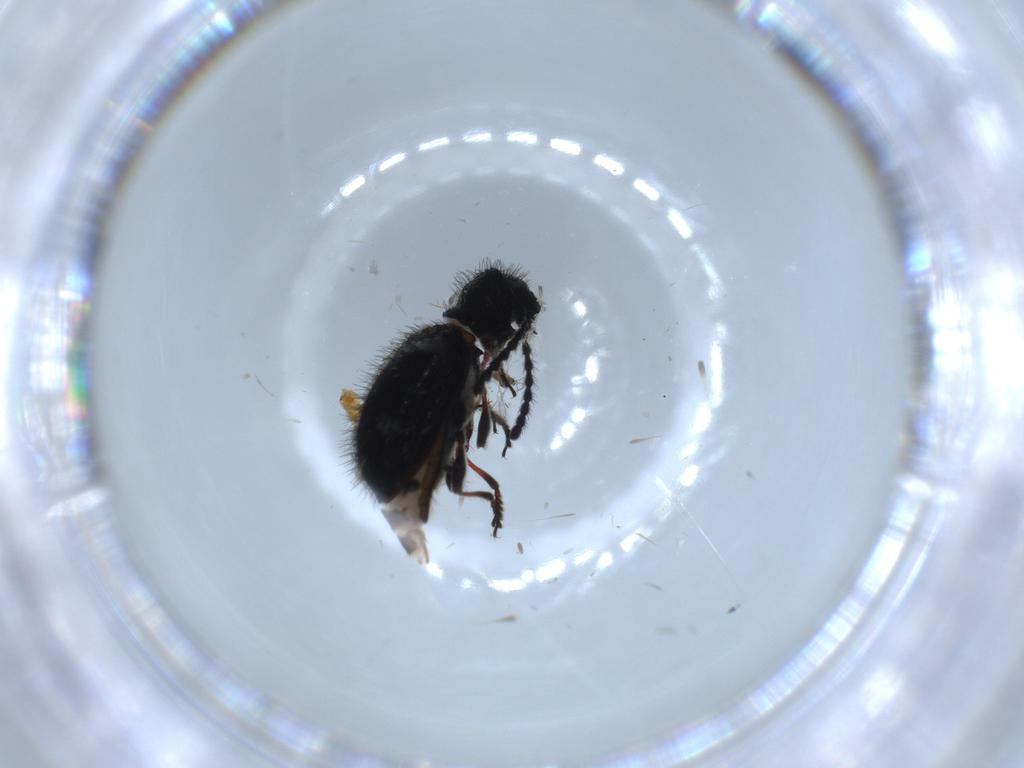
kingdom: Animalia
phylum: Arthropoda
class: Insecta
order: Coleoptera
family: Ptinidae
